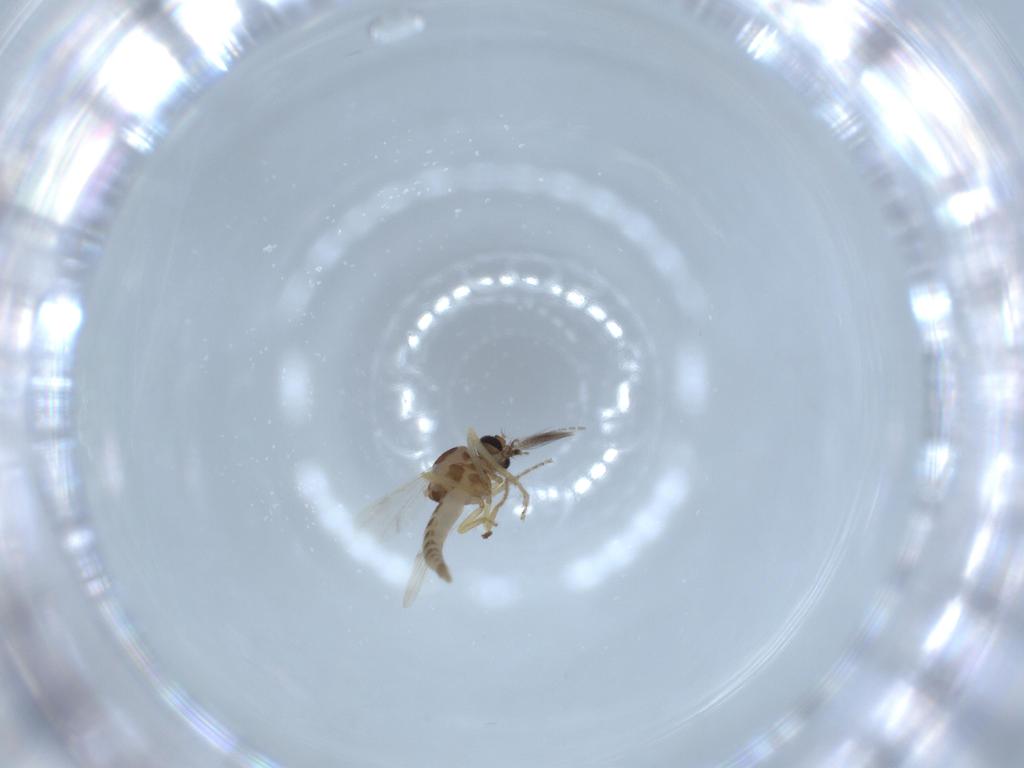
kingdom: Animalia
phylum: Arthropoda
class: Insecta
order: Diptera
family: Ceratopogonidae
